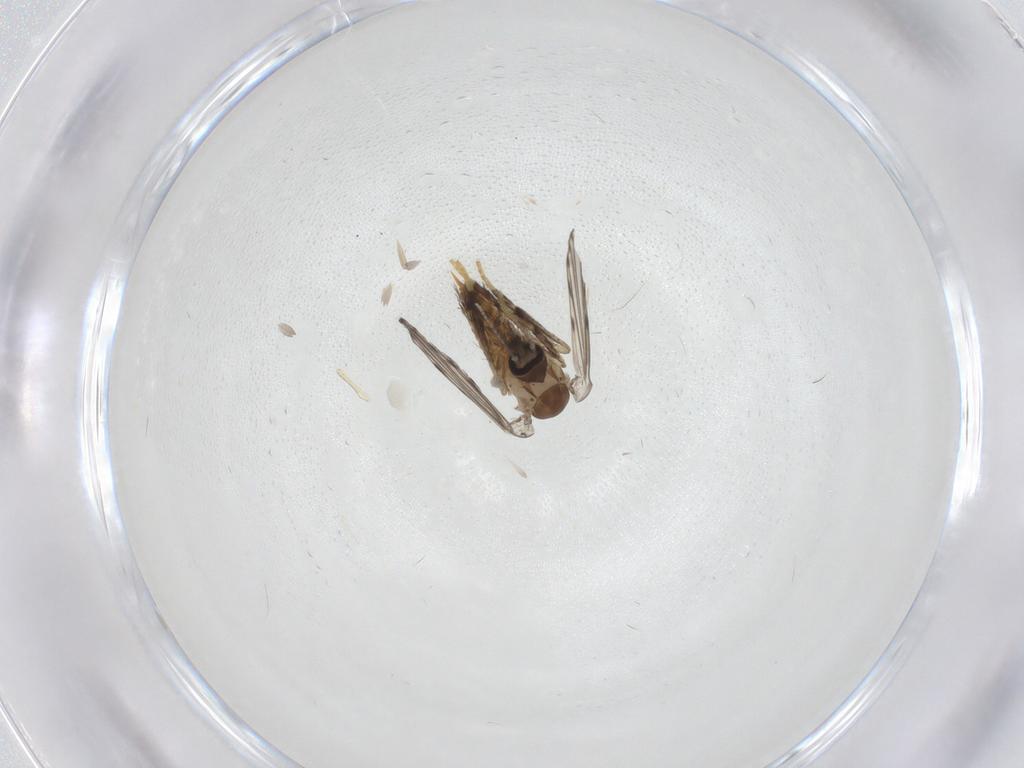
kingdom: Animalia
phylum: Arthropoda
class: Insecta
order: Diptera
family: Psychodidae
